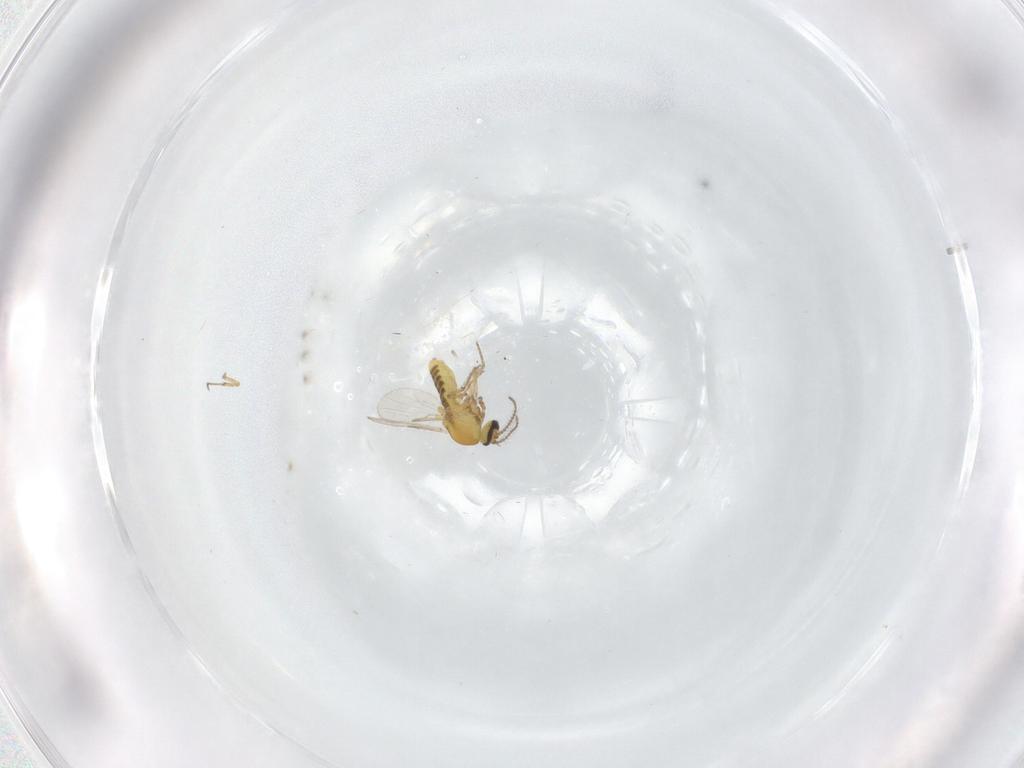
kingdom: Animalia
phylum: Arthropoda
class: Insecta
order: Diptera
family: Ceratopogonidae
